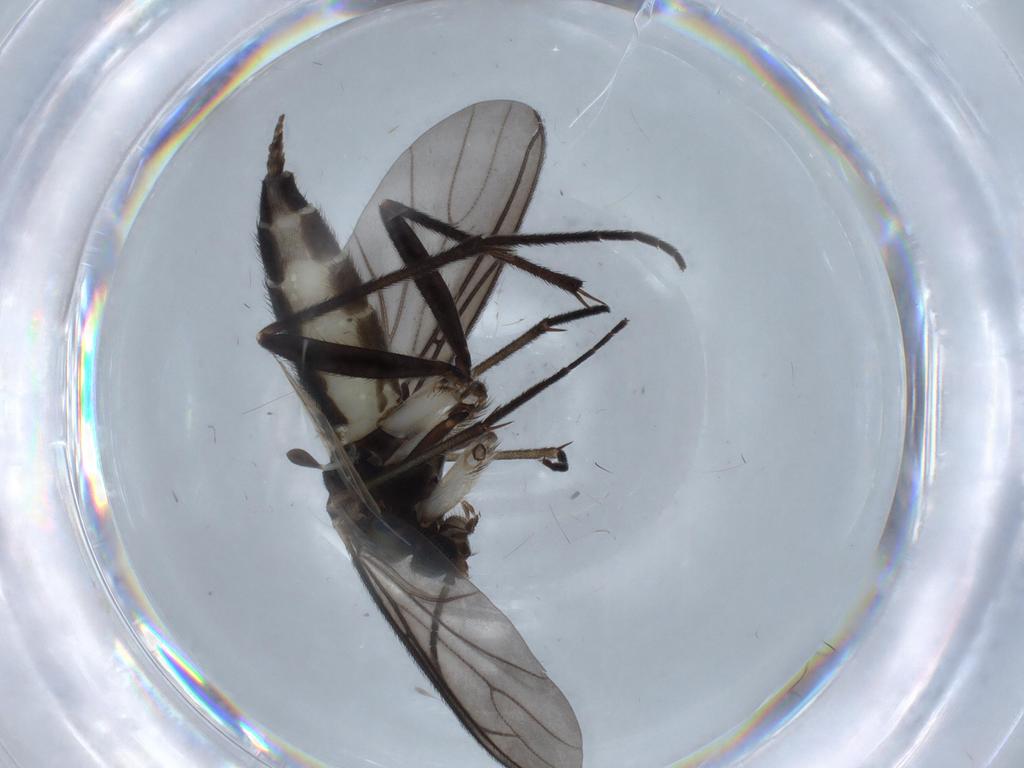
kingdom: Animalia
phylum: Arthropoda
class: Insecta
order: Diptera
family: Sciaridae
